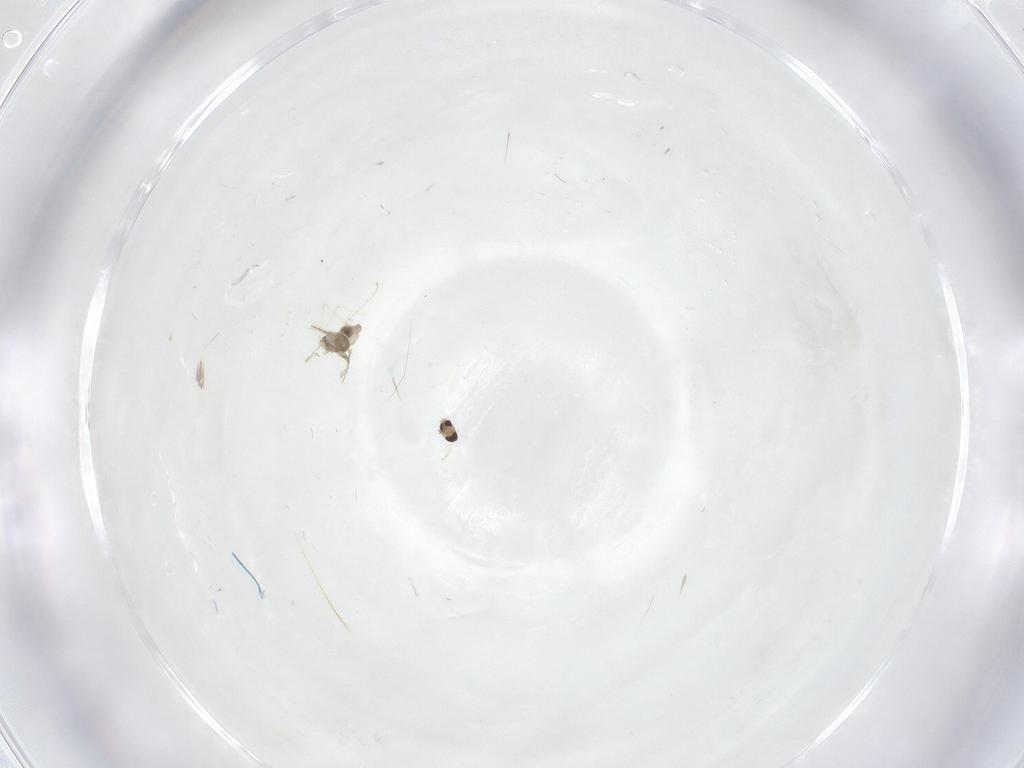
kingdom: Animalia
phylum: Arthropoda
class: Insecta
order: Diptera
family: Cecidomyiidae
